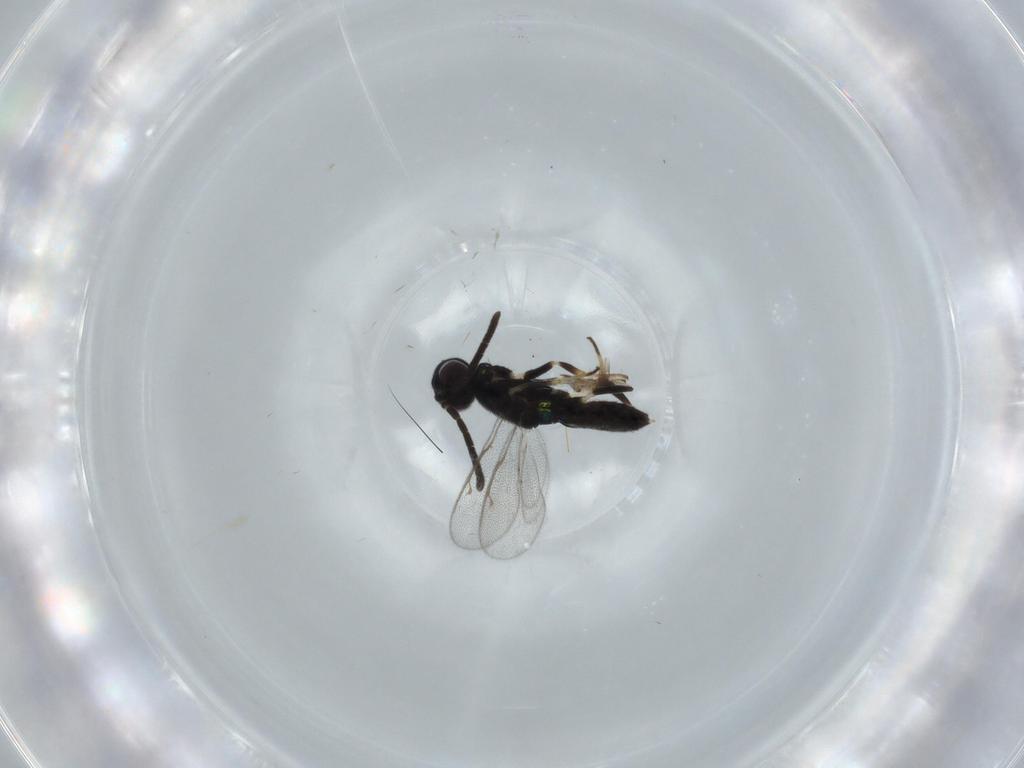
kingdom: Animalia
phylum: Arthropoda
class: Insecta
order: Hymenoptera
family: Eupelmidae
